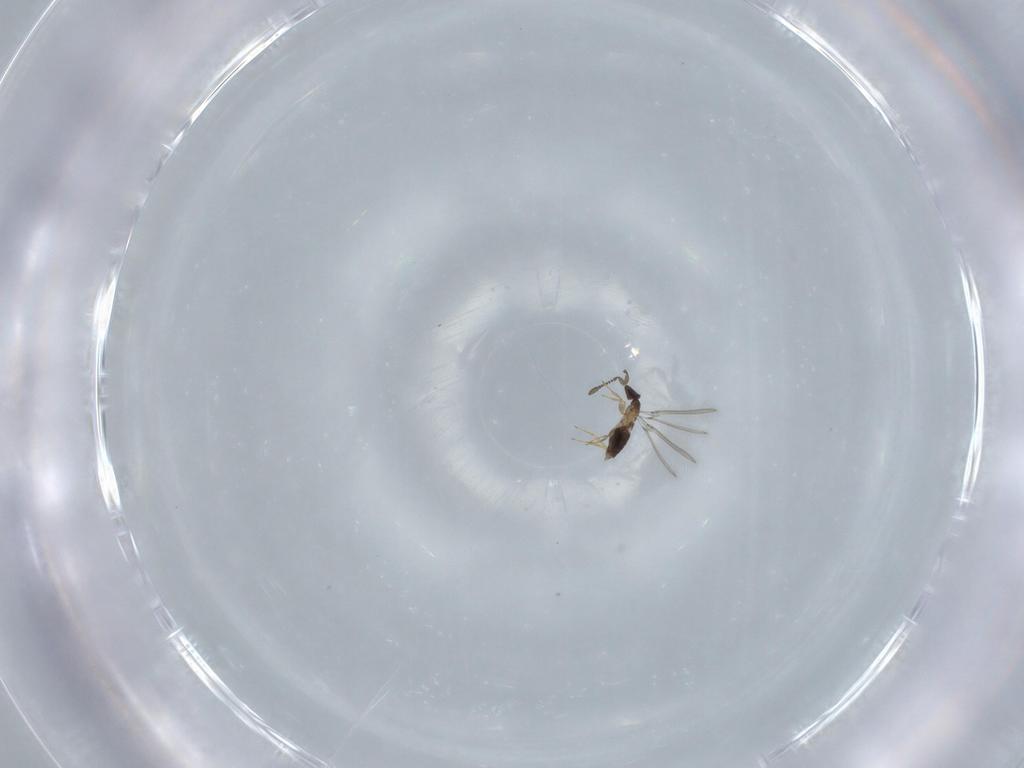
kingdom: Animalia
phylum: Arthropoda
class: Insecta
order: Hymenoptera
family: Mymaridae
